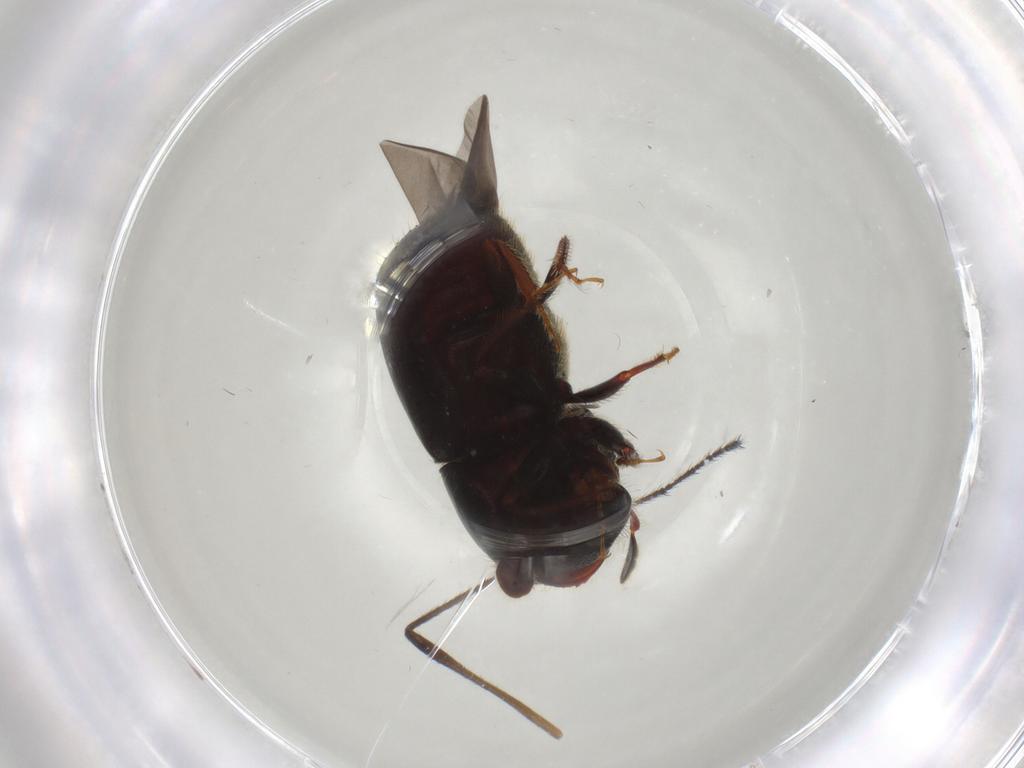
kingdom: Animalia
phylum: Arthropoda
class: Insecta
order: Coleoptera
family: Curculionidae
